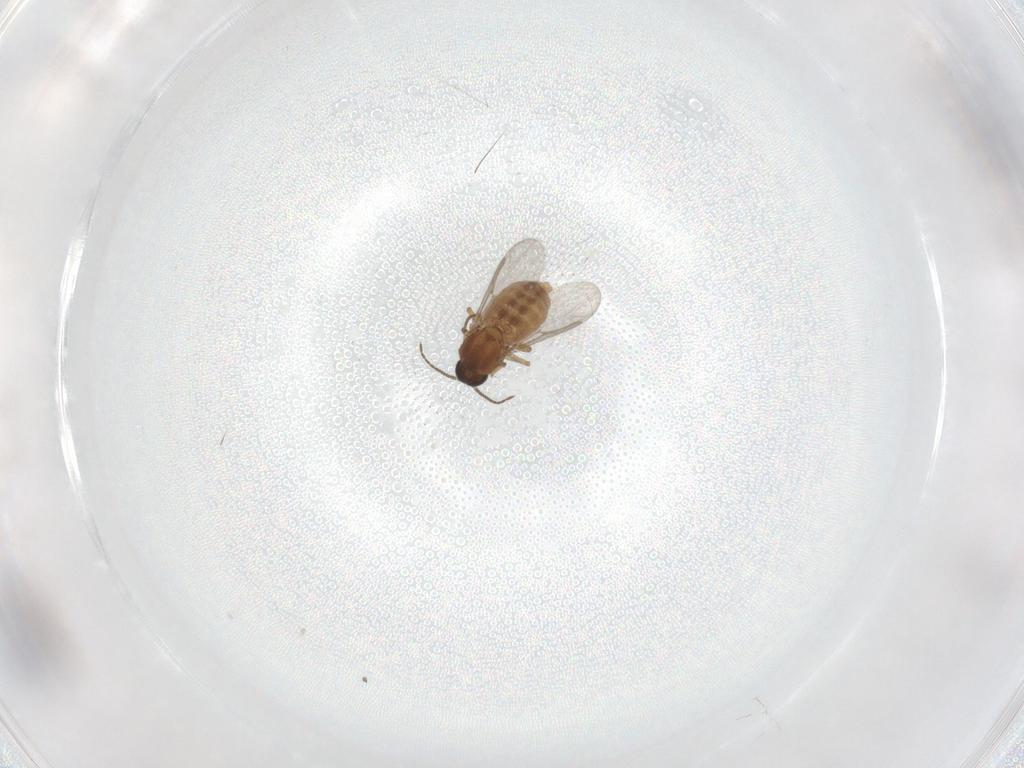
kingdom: Animalia
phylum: Arthropoda
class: Insecta
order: Diptera
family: Ceratopogonidae
